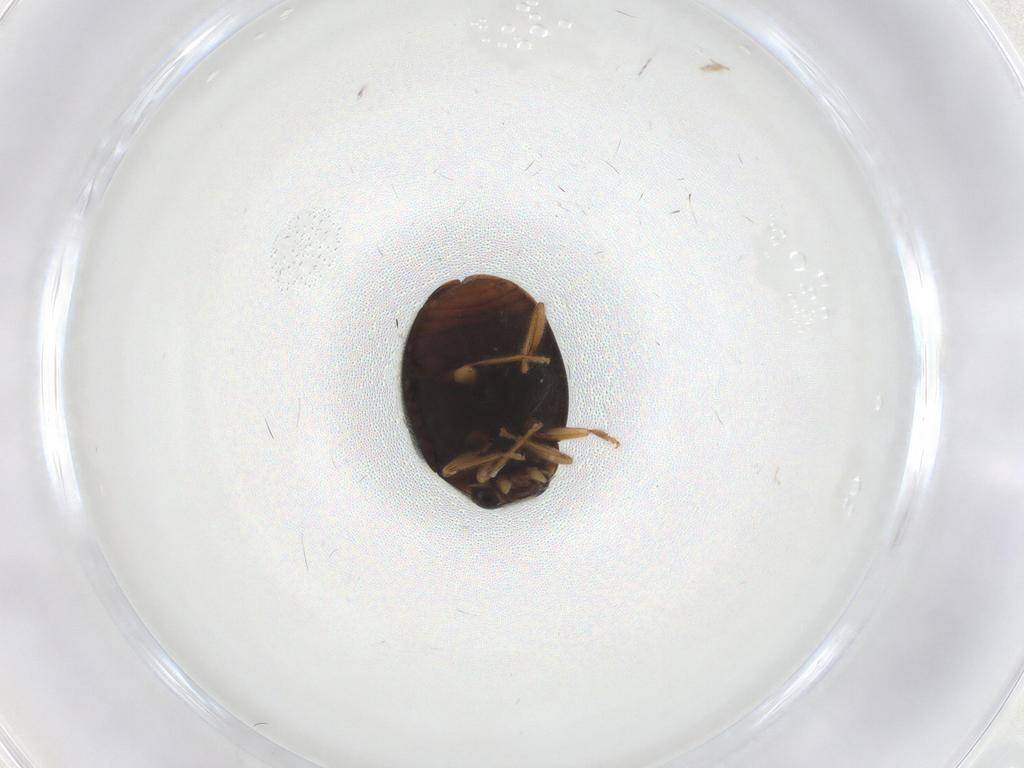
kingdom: Animalia
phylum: Arthropoda
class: Insecta
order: Coleoptera
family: Coccinellidae
